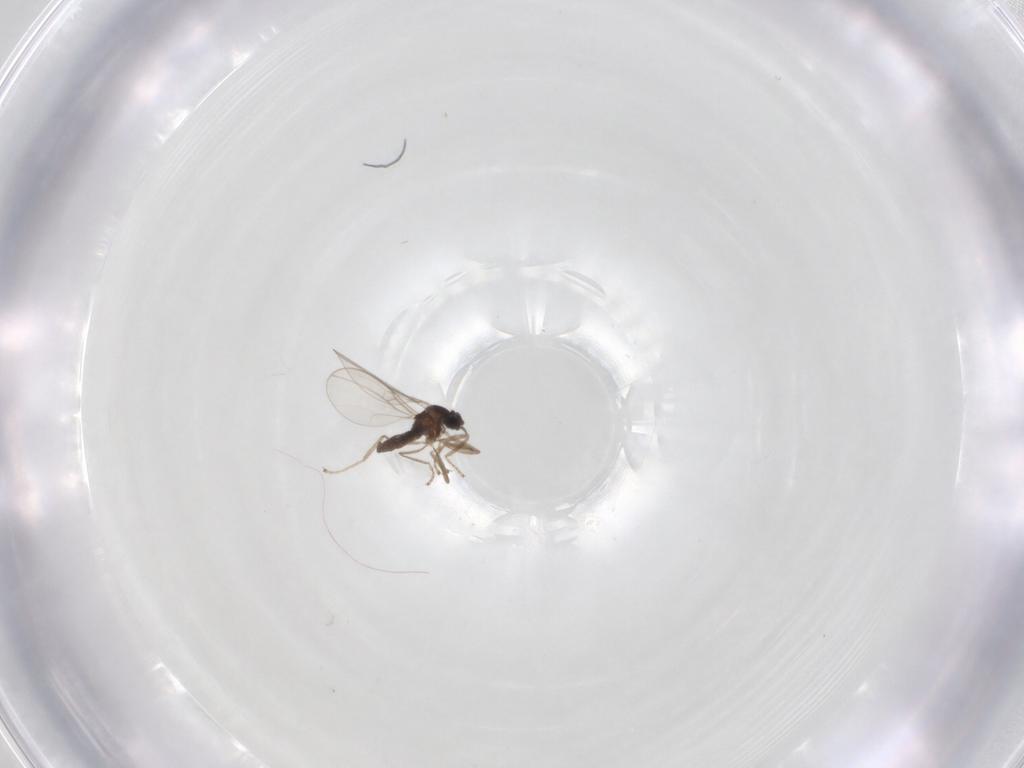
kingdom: Animalia
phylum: Arthropoda
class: Insecta
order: Diptera
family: Cecidomyiidae
